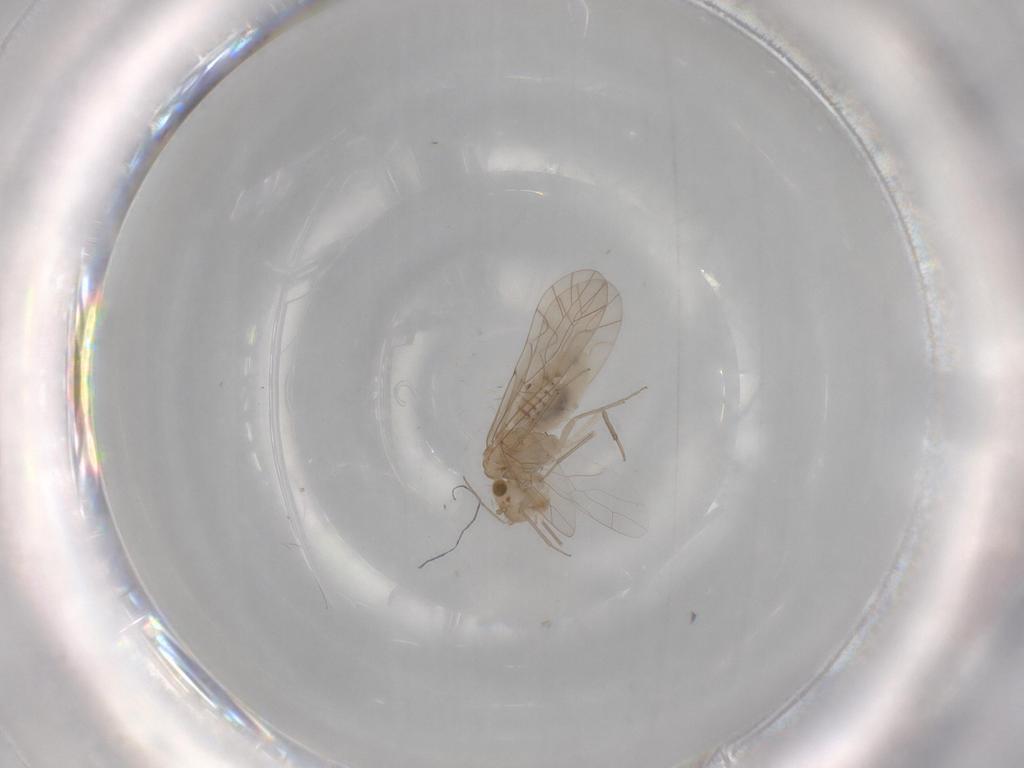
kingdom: Animalia
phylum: Arthropoda
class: Insecta
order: Psocodea
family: Lachesillidae
